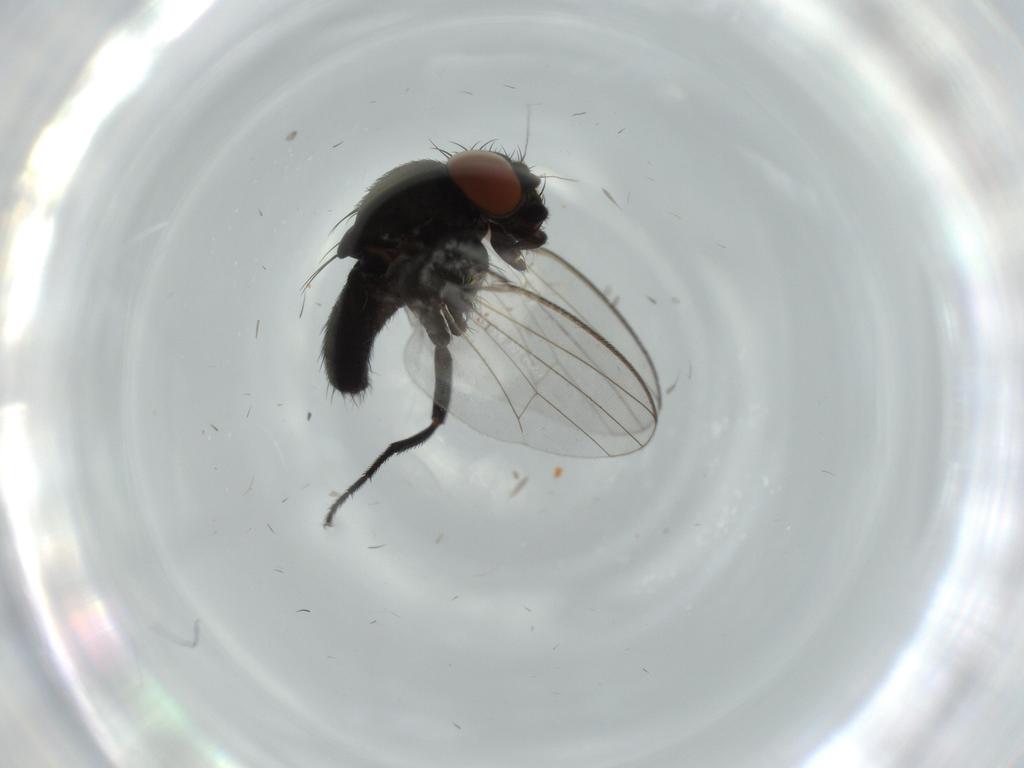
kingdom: Animalia
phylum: Arthropoda
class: Insecta
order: Diptera
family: Milichiidae
